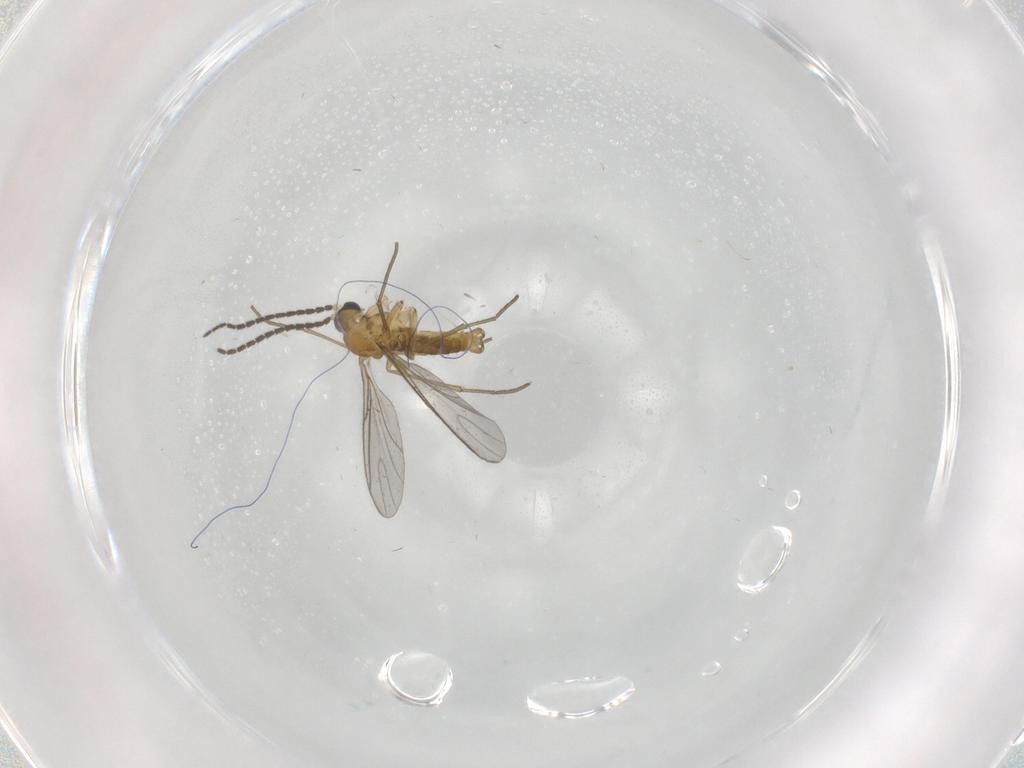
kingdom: Animalia
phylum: Arthropoda
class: Insecta
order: Diptera
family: Sciaridae
